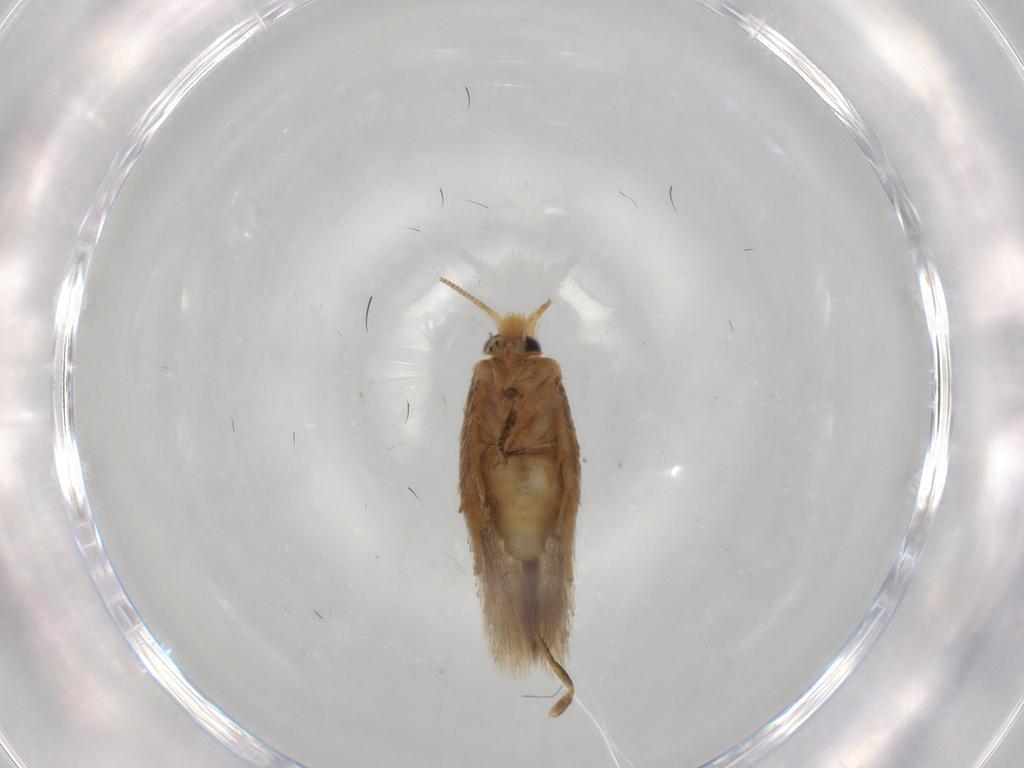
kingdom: Animalia
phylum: Arthropoda
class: Insecta
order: Lepidoptera
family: Nepticulidae
